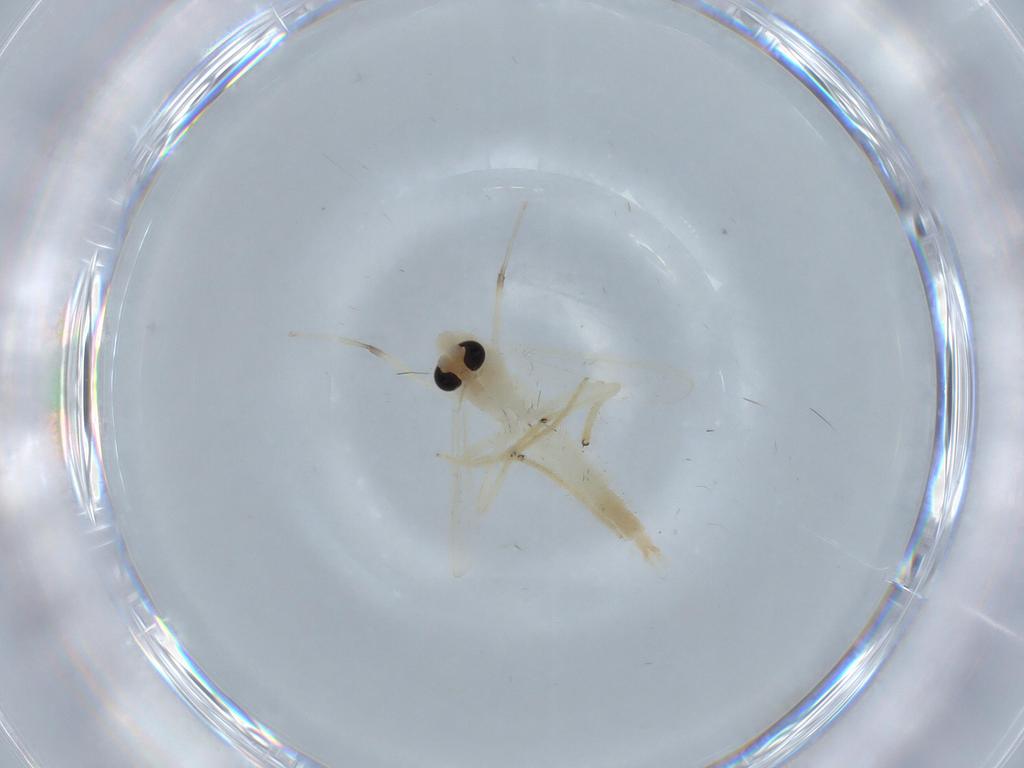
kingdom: Animalia
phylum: Arthropoda
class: Insecta
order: Diptera
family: Chironomidae
